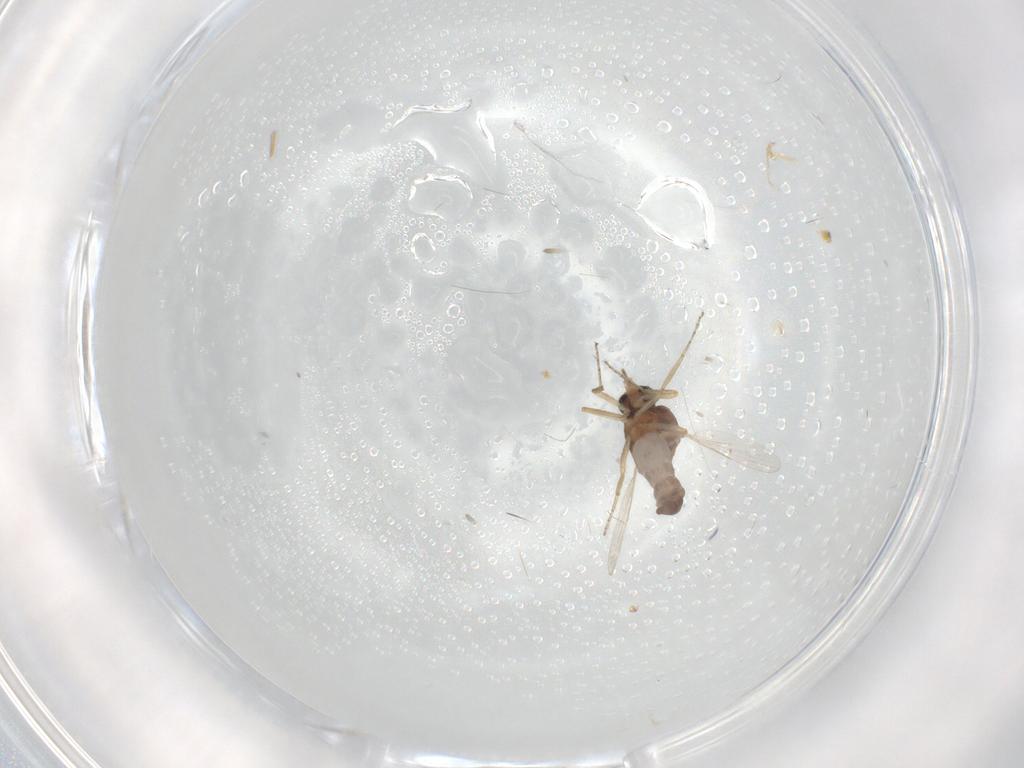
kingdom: Animalia
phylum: Arthropoda
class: Insecta
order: Diptera
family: Ceratopogonidae
